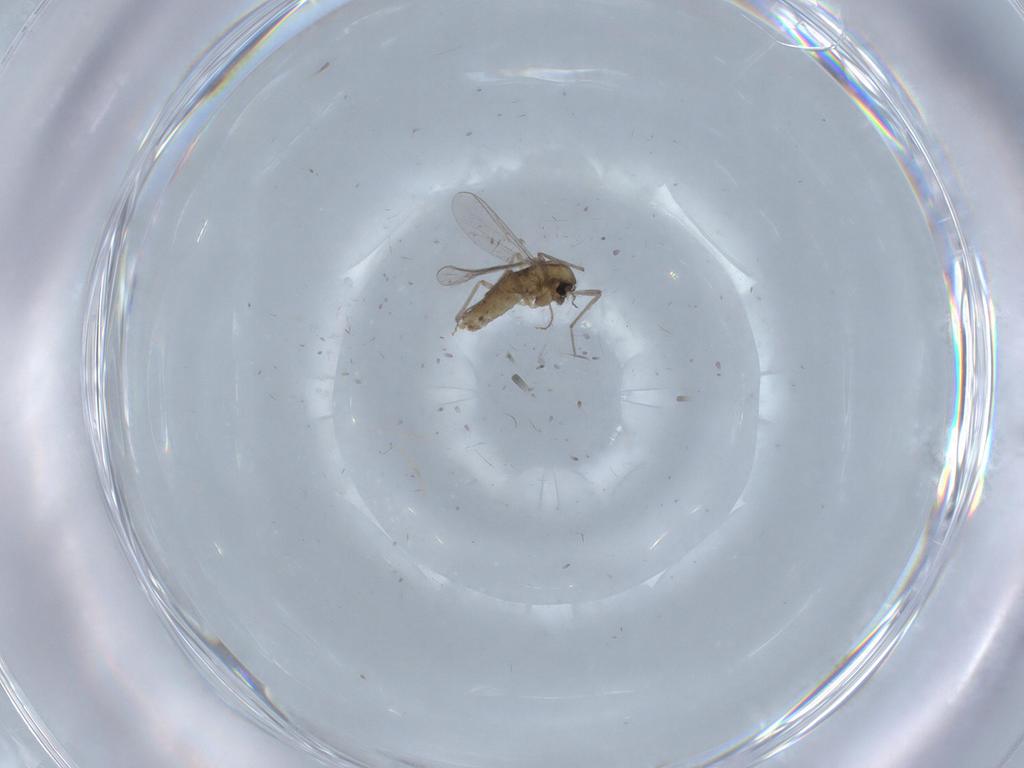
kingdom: Animalia
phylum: Arthropoda
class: Insecta
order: Diptera
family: Chironomidae
